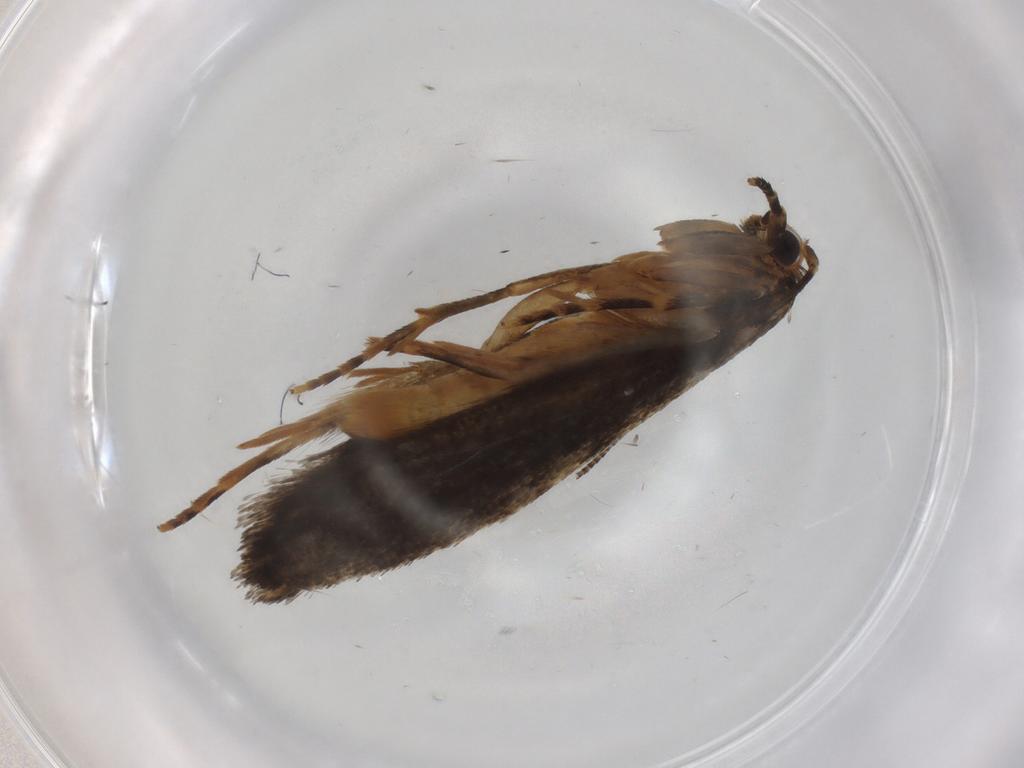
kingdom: Animalia
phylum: Arthropoda
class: Insecta
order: Lepidoptera
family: Tineidae
